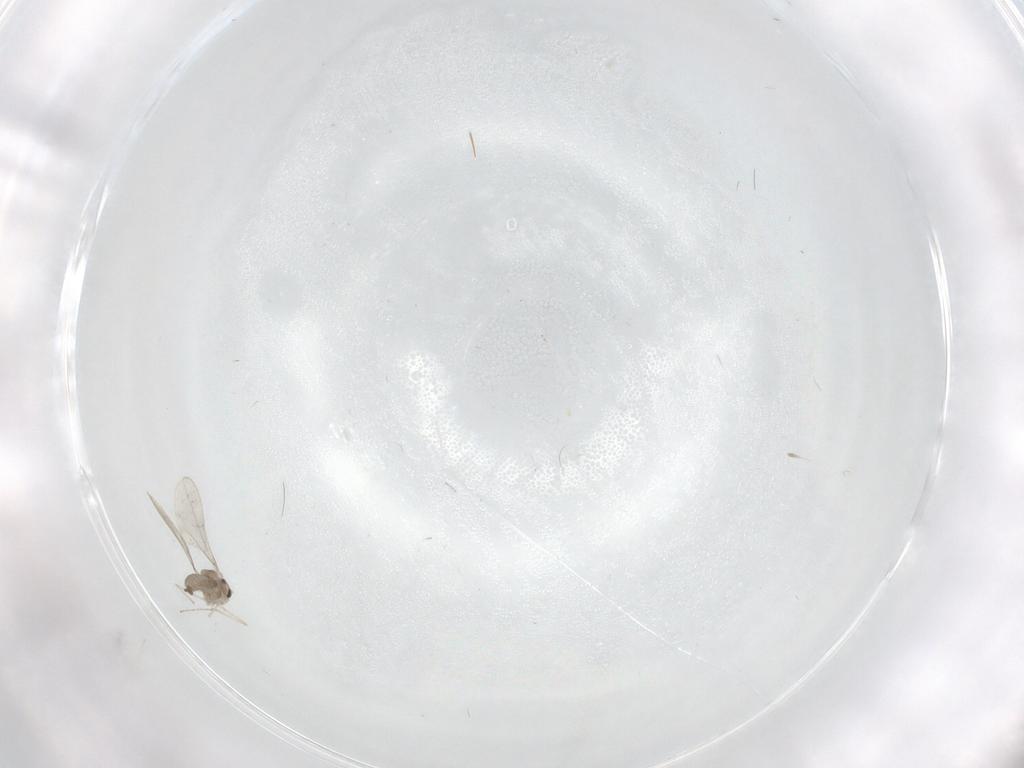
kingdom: Animalia
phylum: Arthropoda
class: Insecta
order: Diptera
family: Cecidomyiidae
